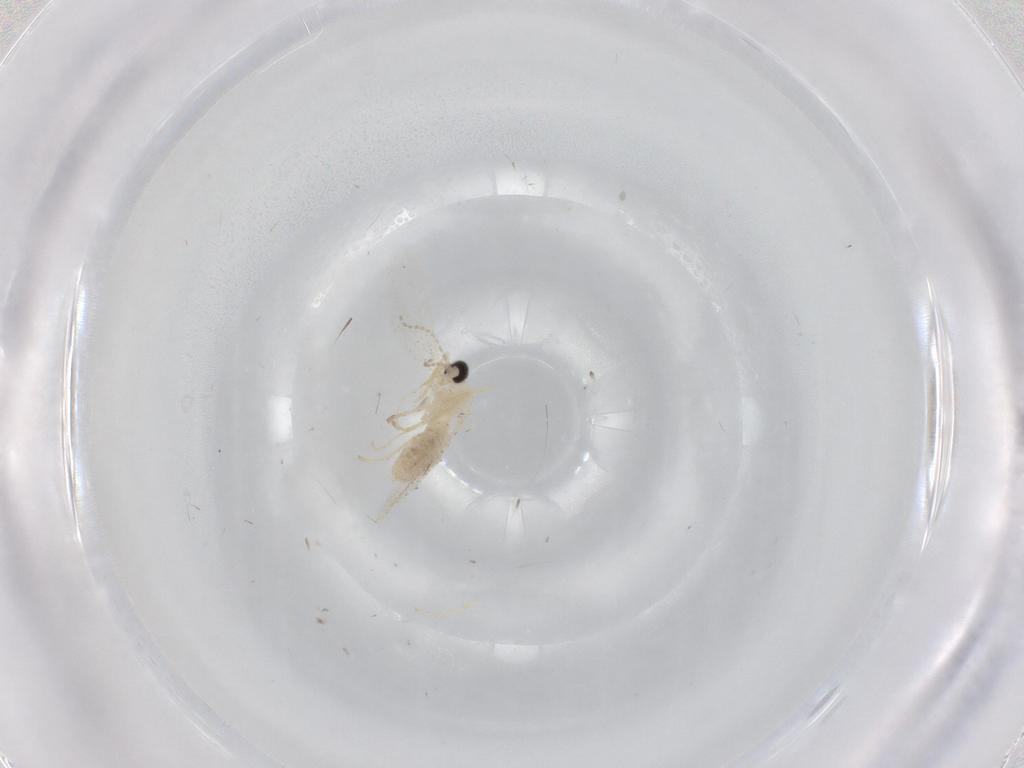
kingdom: Animalia
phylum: Arthropoda
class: Insecta
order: Diptera
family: Cecidomyiidae
